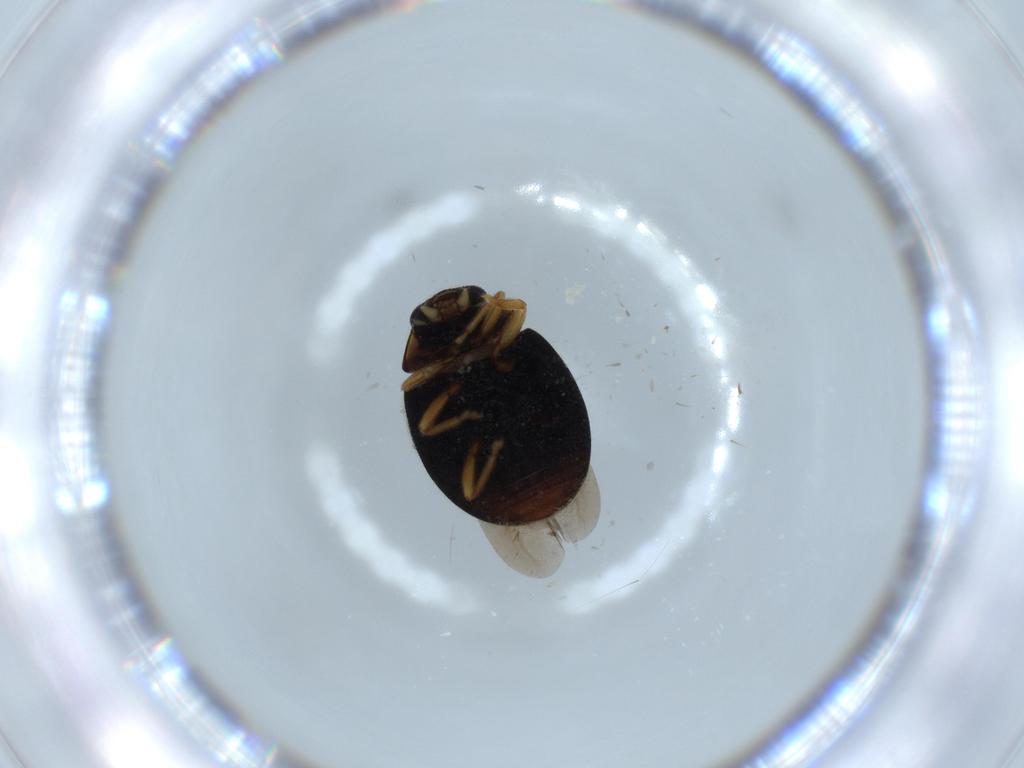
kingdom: Animalia
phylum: Arthropoda
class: Insecta
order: Coleoptera
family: Coccinellidae
